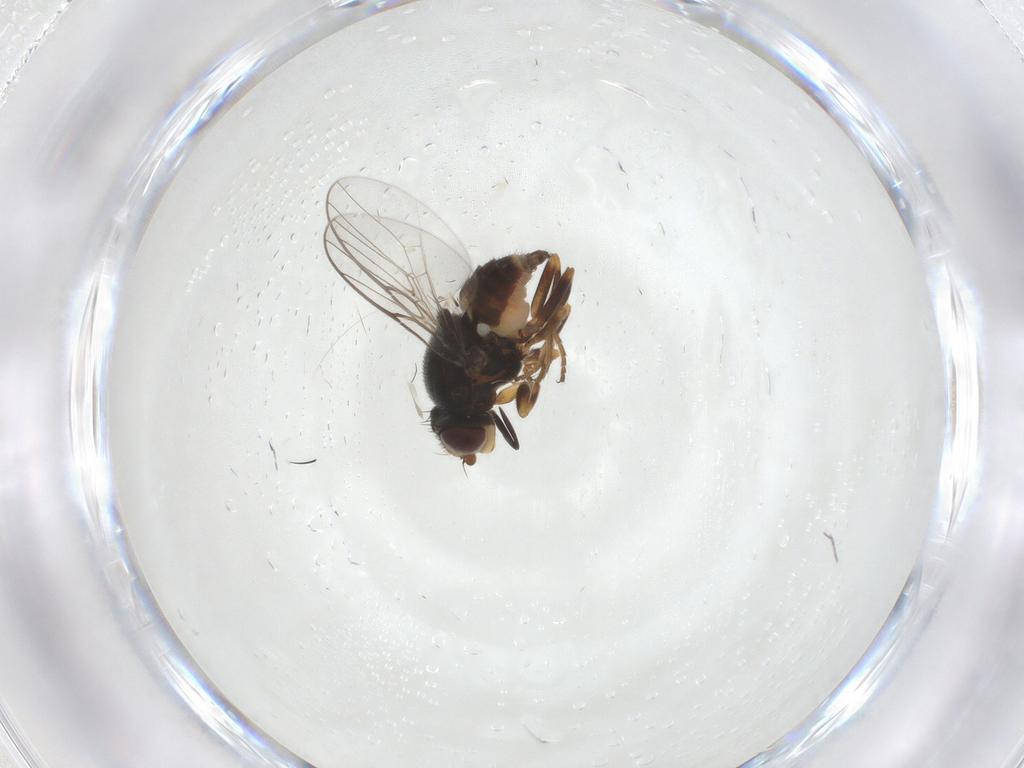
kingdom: Animalia
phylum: Arthropoda
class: Insecta
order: Diptera
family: Chloropidae
